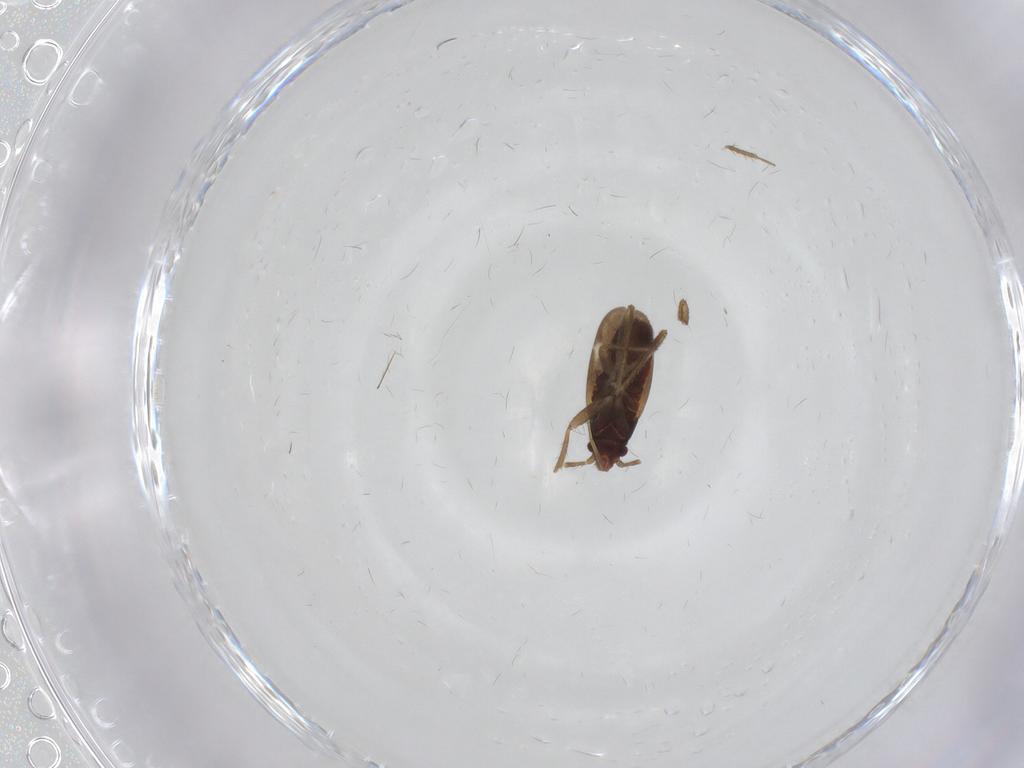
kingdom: Animalia
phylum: Arthropoda
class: Insecta
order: Hemiptera
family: Ceratocombidae
